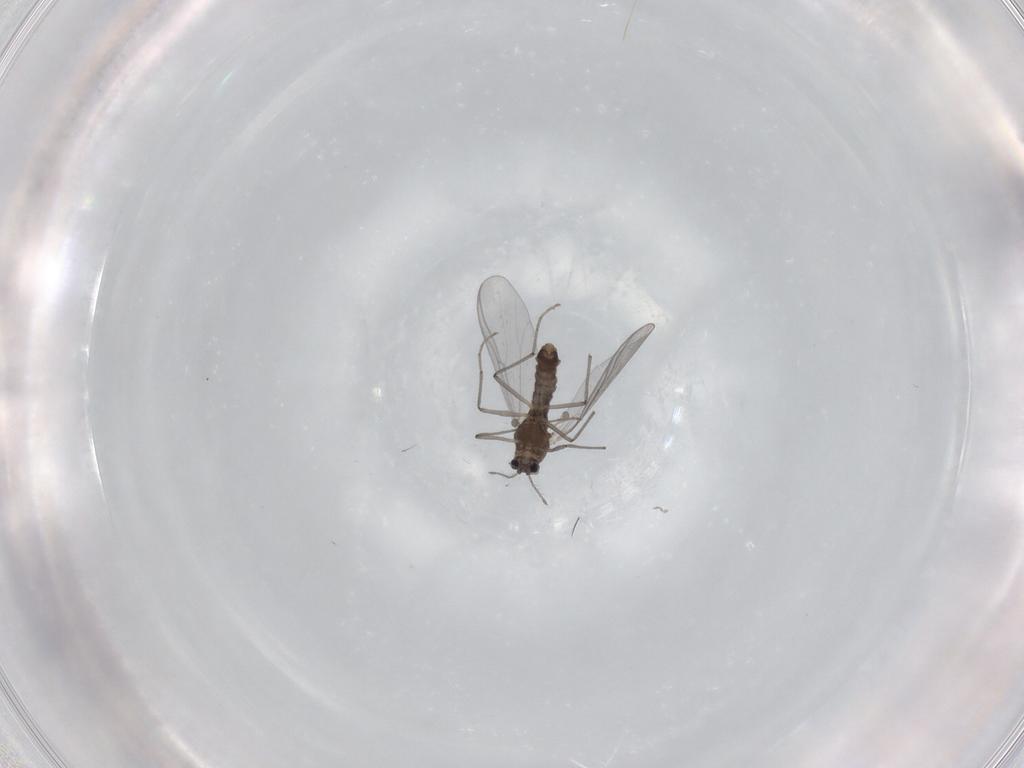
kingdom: Animalia
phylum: Arthropoda
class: Insecta
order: Diptera
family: Chironomidae
